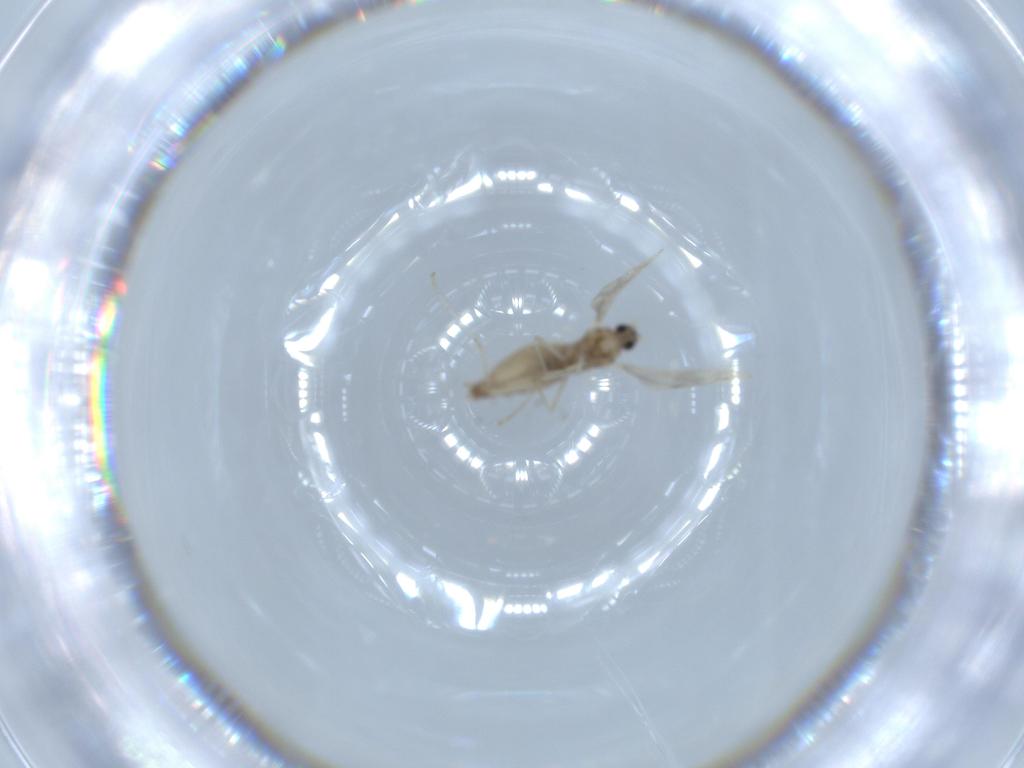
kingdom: Animalia
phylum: Arthropoda
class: Insecta
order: Diptera
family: Cecidomyiidae
